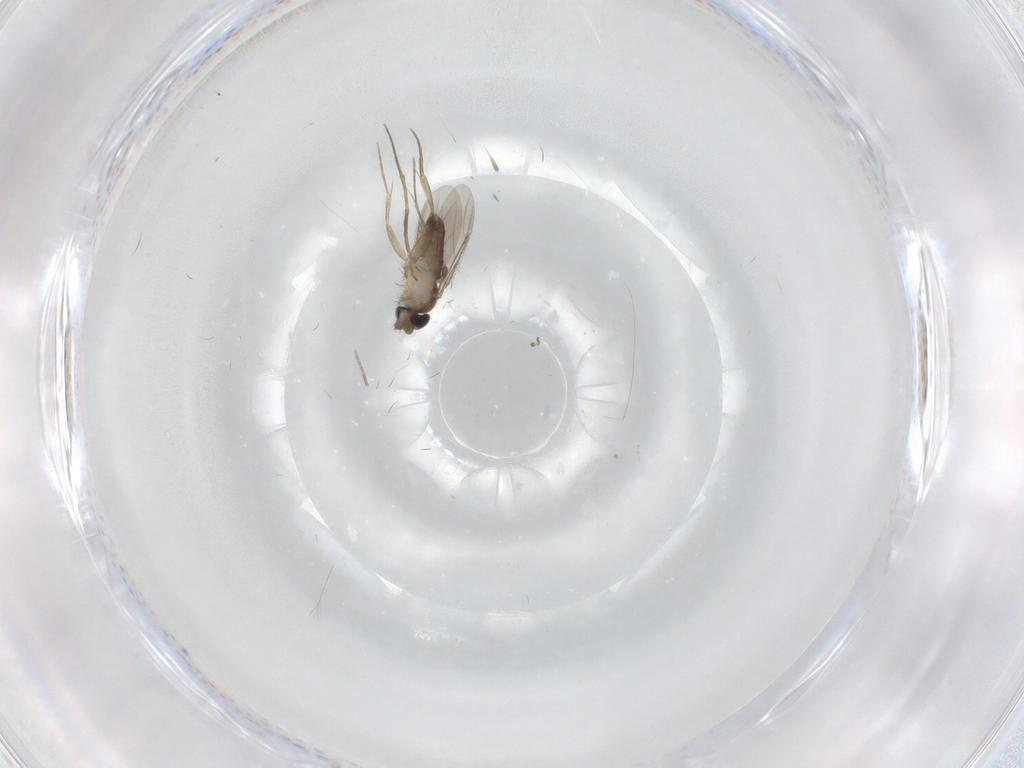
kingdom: Animalia
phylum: Arthropoda
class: Insecta
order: Diptera
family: Phoridae
